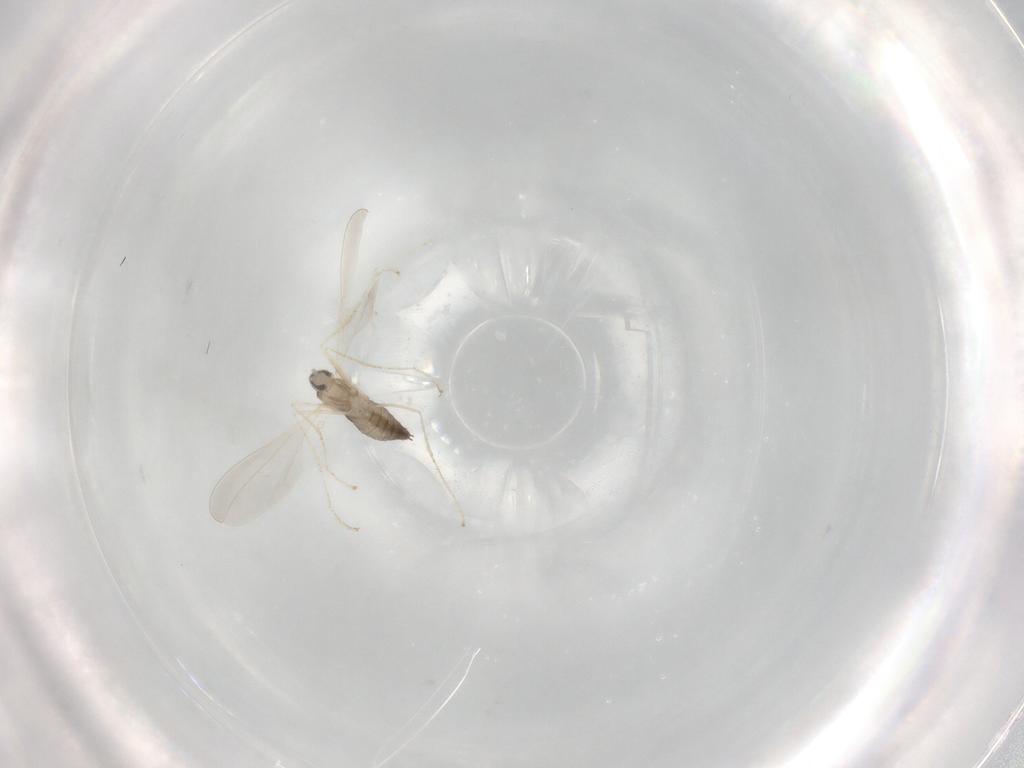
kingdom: Animalia
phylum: Arthropoda
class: Insecta
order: Diptera
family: Cecidomyiidae
